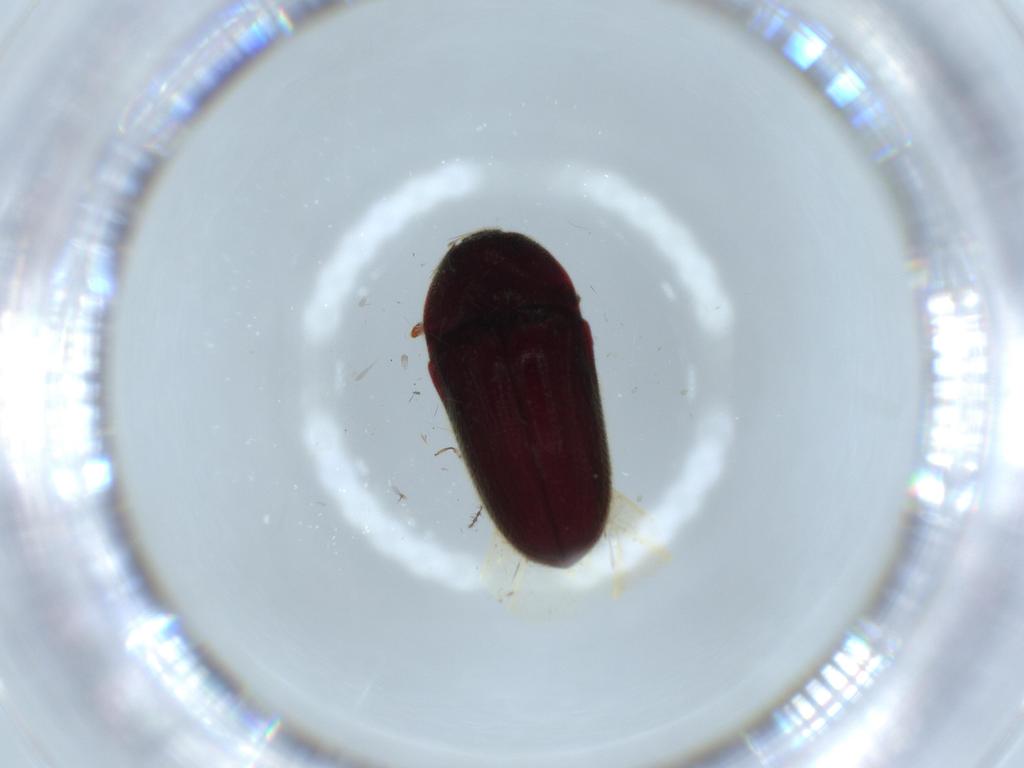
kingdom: Animalia
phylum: Arthropoda
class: Insecta
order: Coleoptera
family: Throscidae
